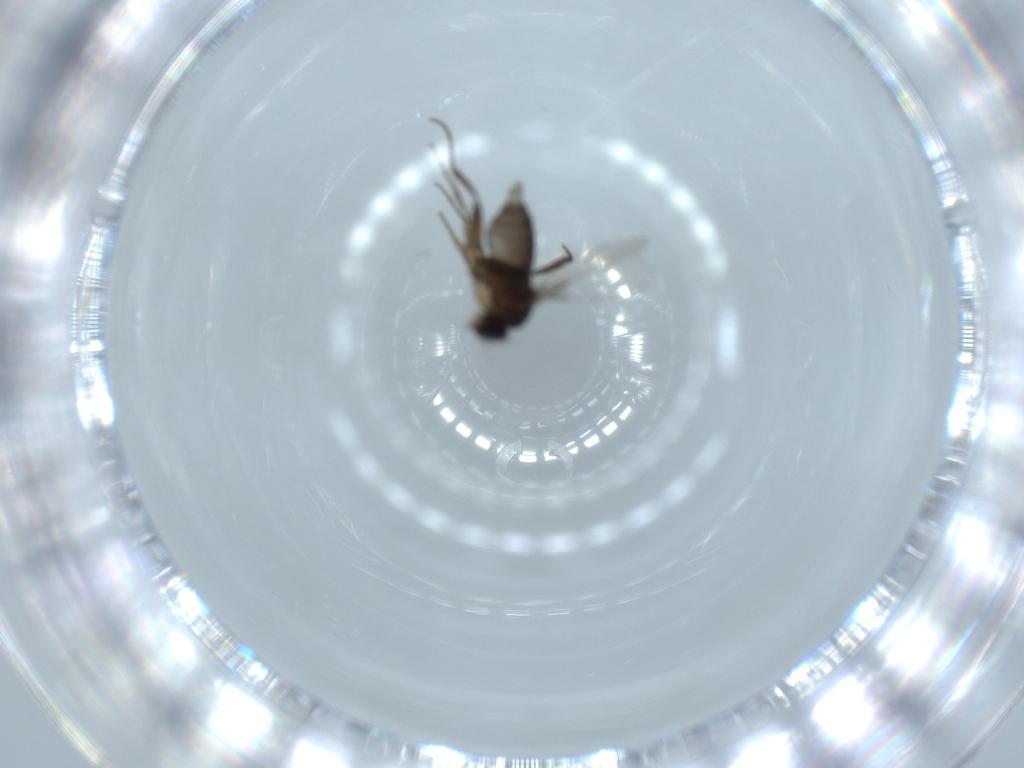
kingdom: Animalia
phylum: Arthropoda
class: Insecta
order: Diptera
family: Phoridae
